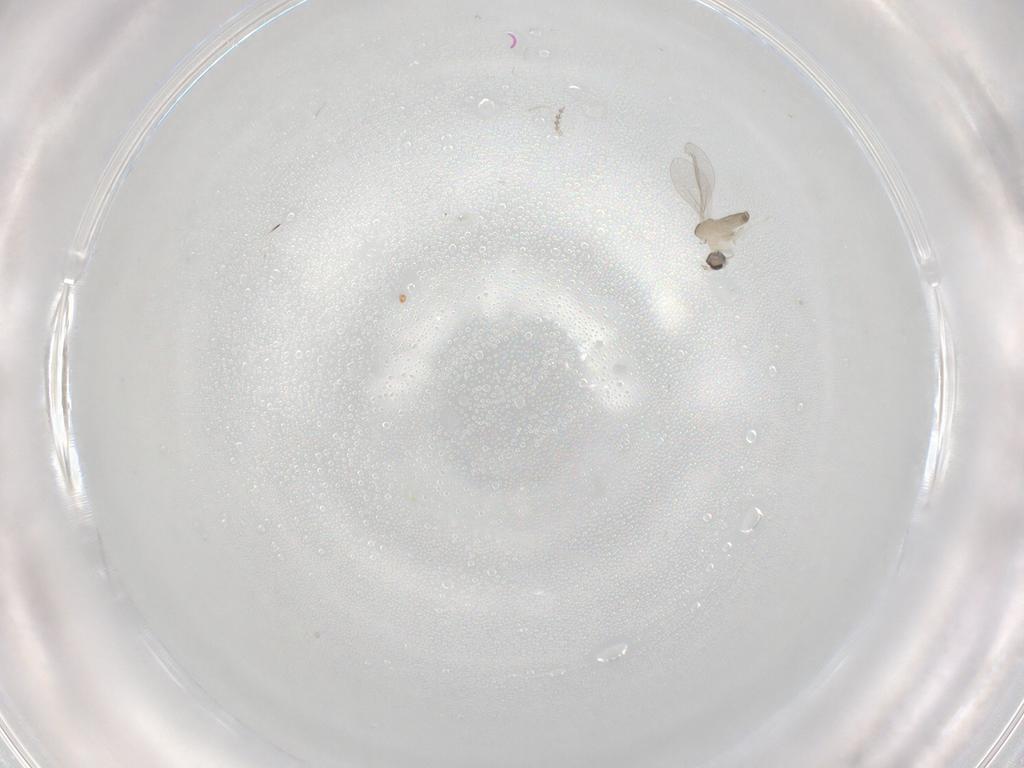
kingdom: Animalia
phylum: Arthropoda
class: Insecta
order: Diptera
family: Cecidomyiidae
